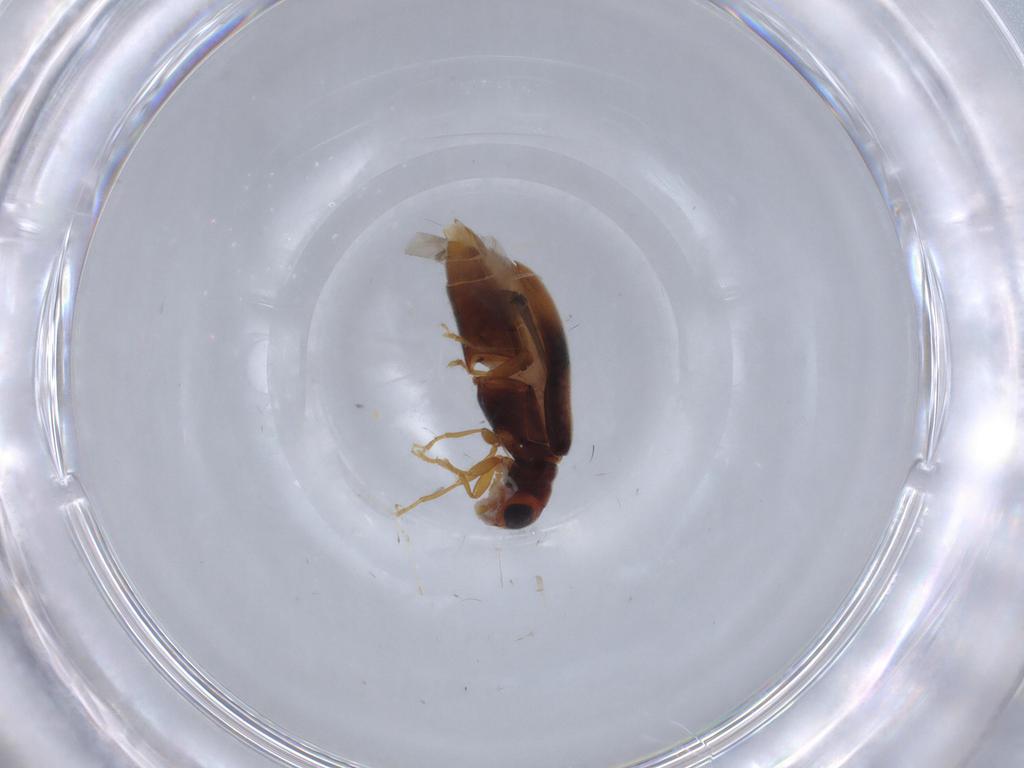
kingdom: Animalia
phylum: Arthropoda
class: Insecta
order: Coleoptera
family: Mycteridae
